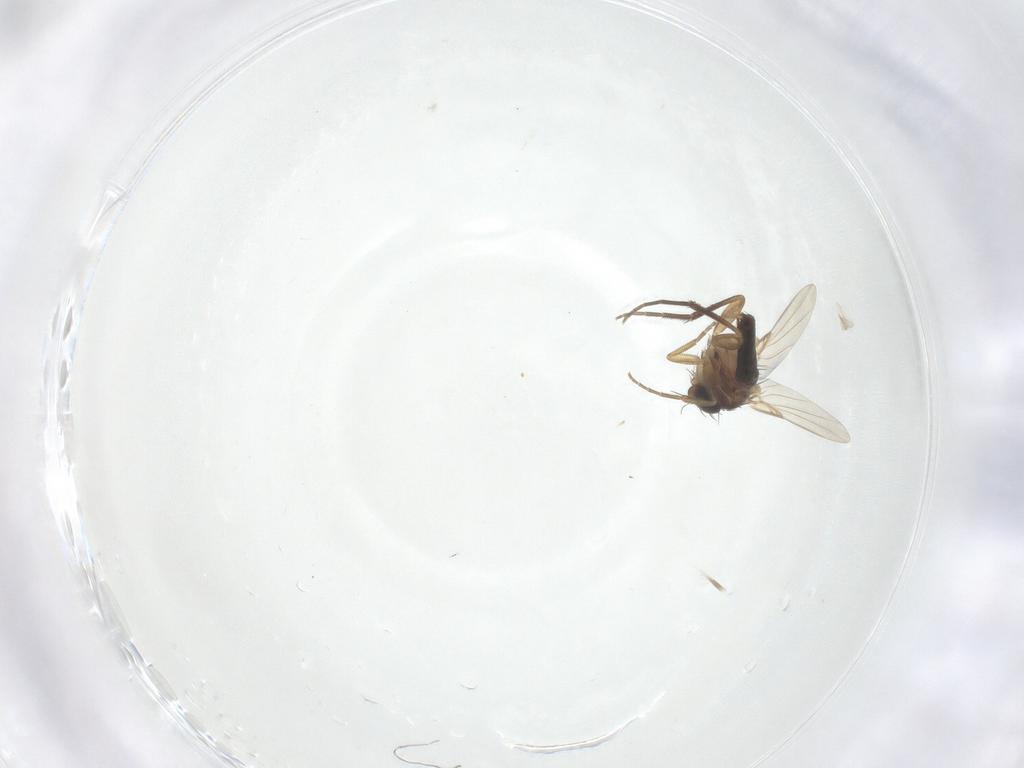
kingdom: Animalia
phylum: Arthropoda
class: Insecta
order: Diptera
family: Phoridae
